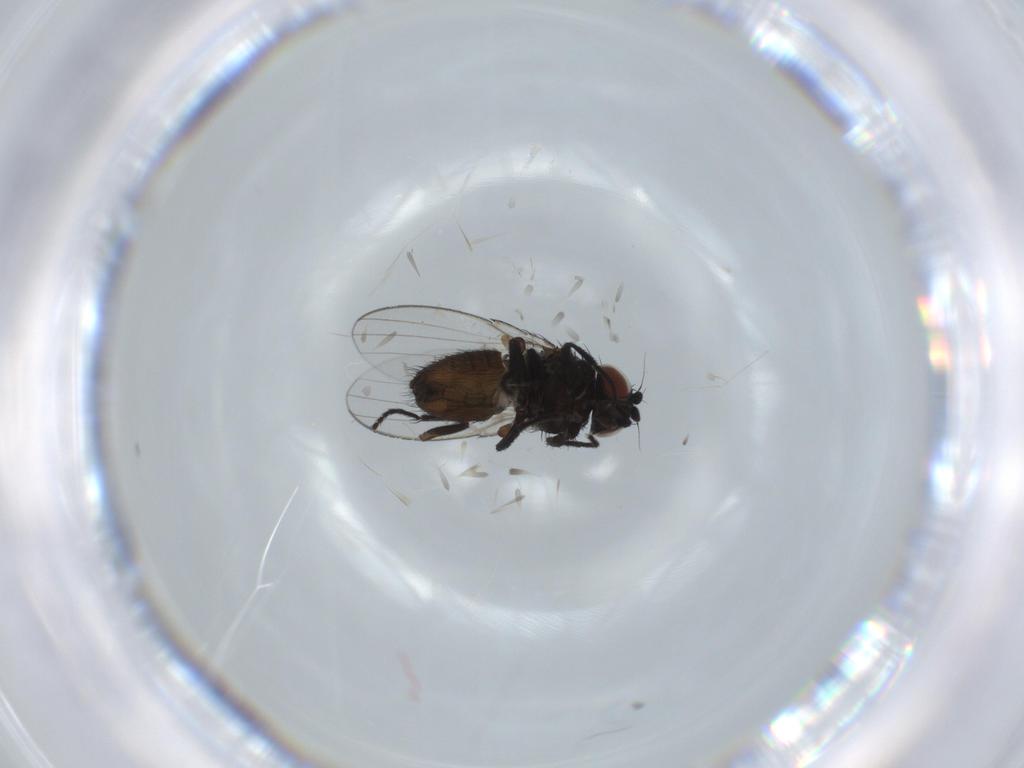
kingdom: Animalia
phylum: Arthropoda
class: Insecta
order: Diptera
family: Milichiidae
